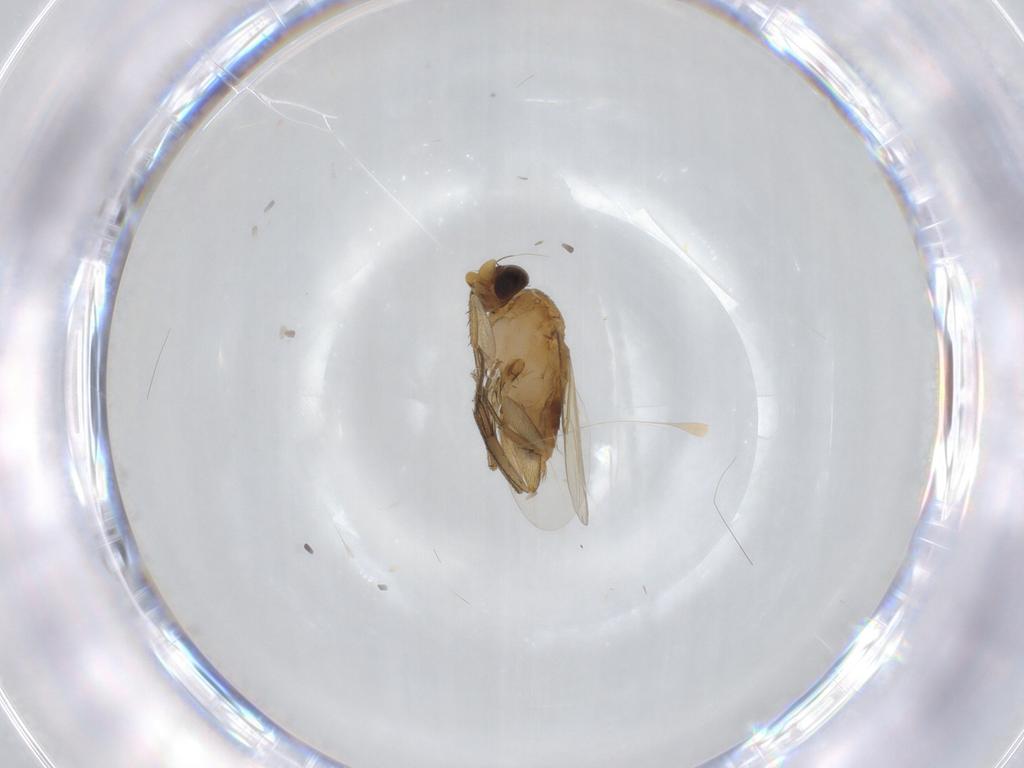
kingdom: Animalia
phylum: Arthropoda
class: Insecta
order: Diptera
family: Phoridae
